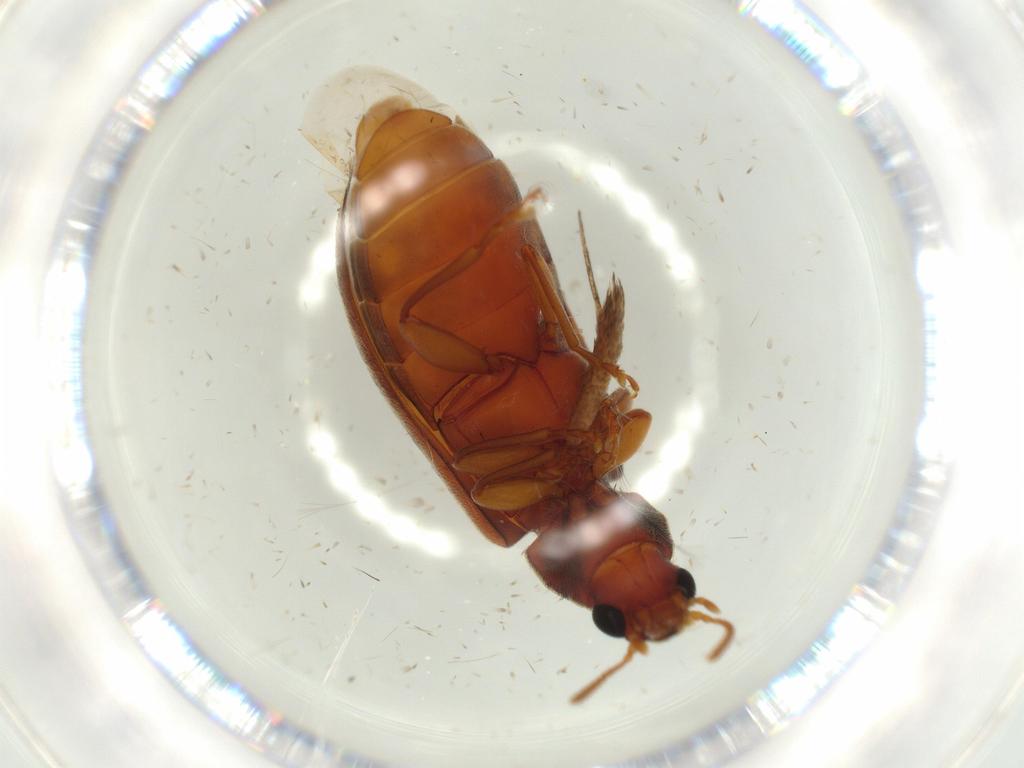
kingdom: Animalia
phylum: Arthropoda
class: Insecta
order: Coleoptera
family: Mycteridae
